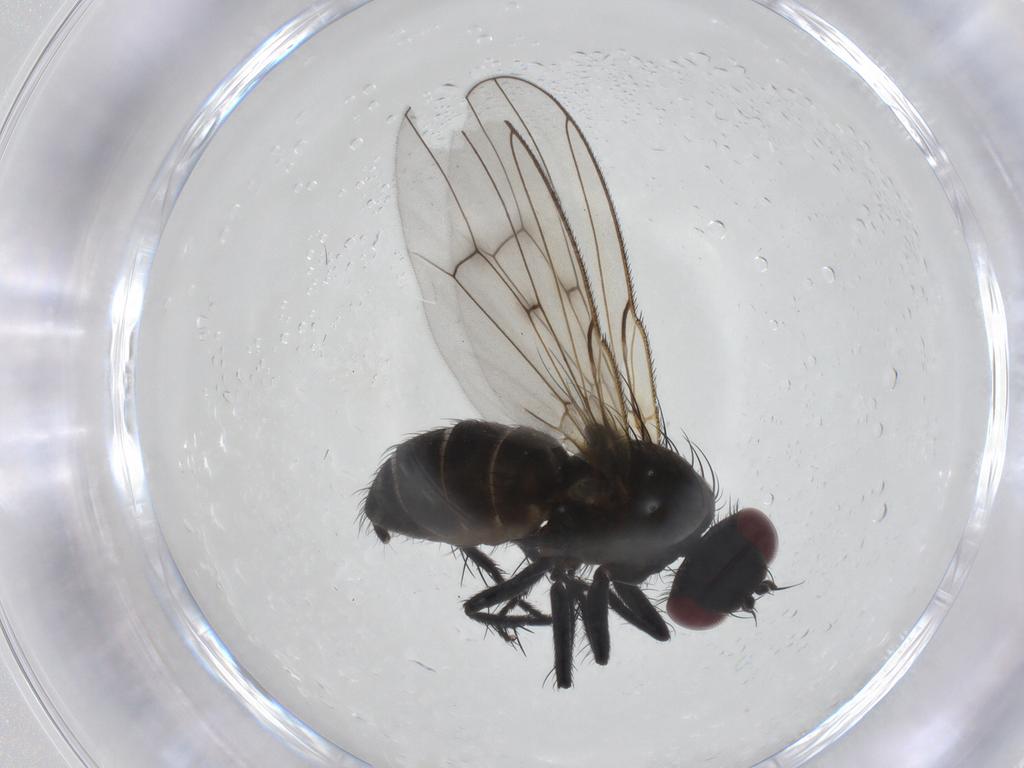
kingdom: Animalia
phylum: Arthropoda
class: Insecta
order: Diptera
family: Muscidae
